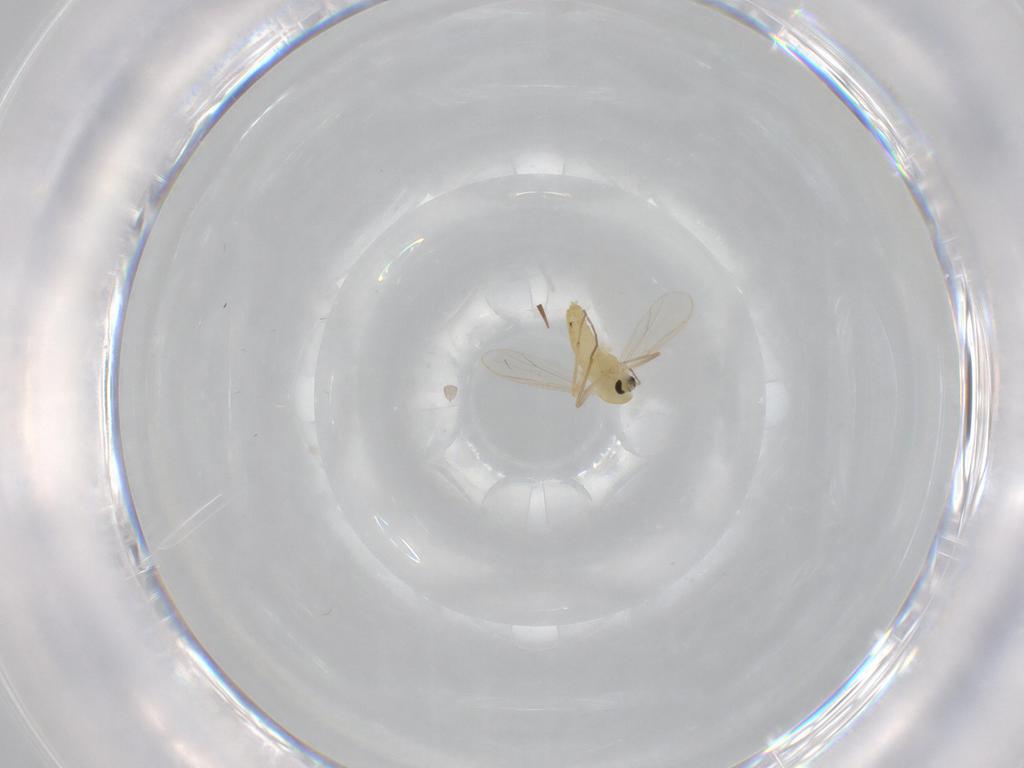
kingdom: Animalia
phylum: Arthropoda
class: Insecta
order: Diptera
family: Chironomidae
